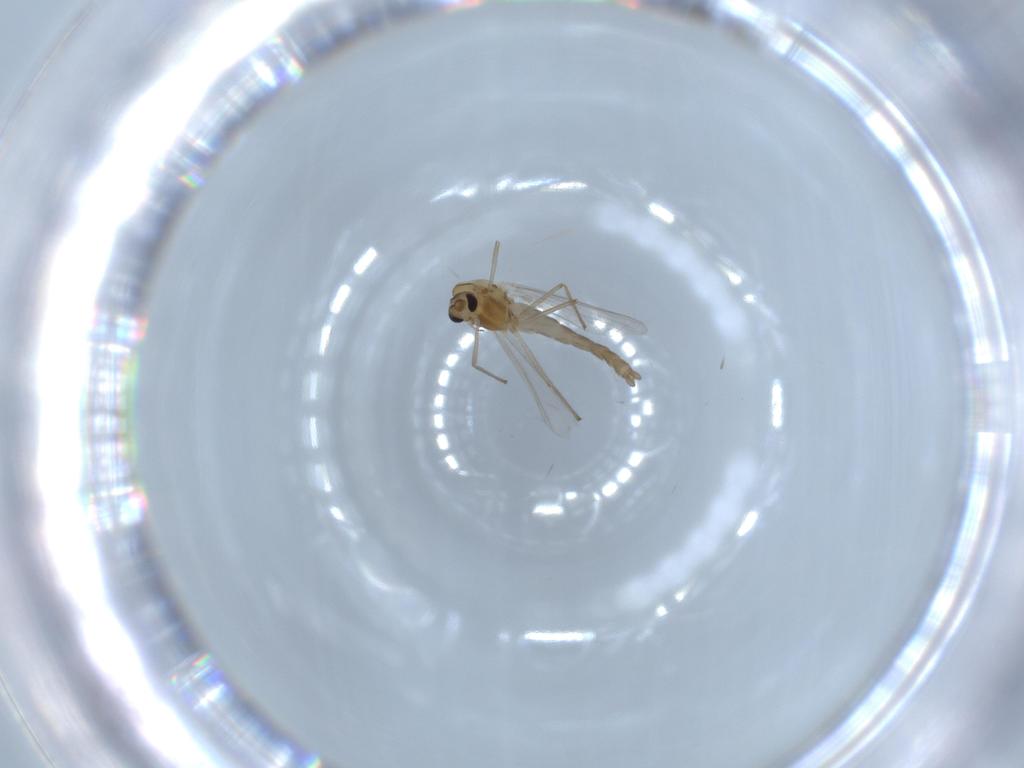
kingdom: Animalia
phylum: Arthropoda
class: Insecta
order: Diptera
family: Chironomidae
